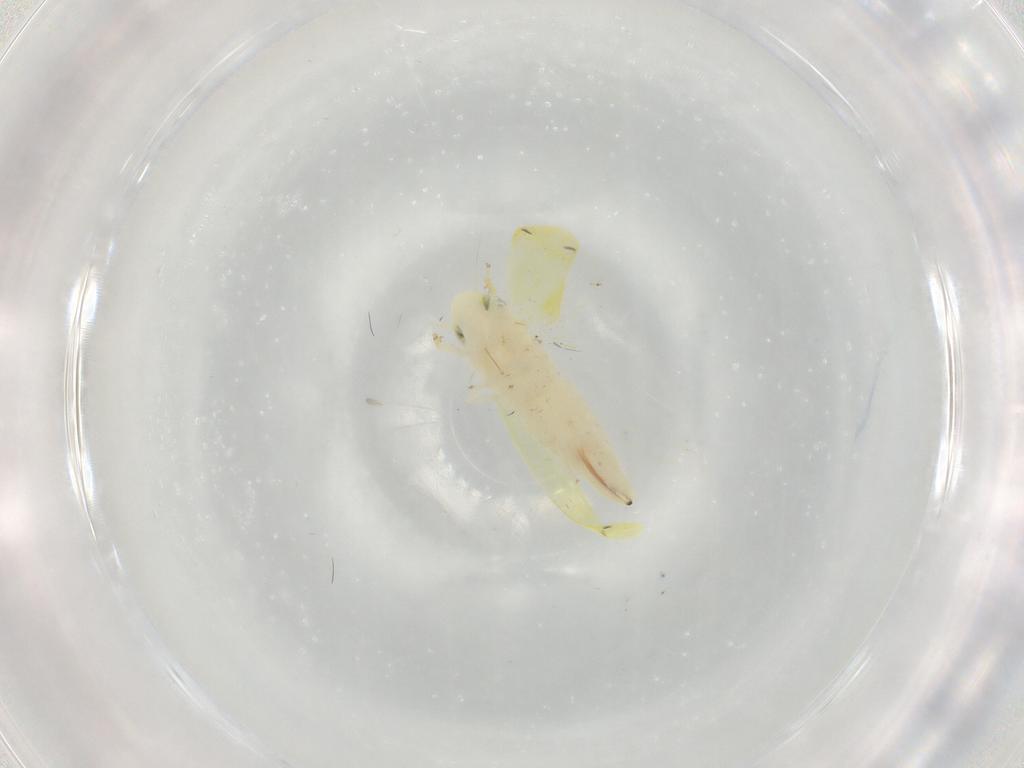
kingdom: Animalia
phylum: Arthropoda
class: Insecta
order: Hemiptera
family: Cicadellidae
